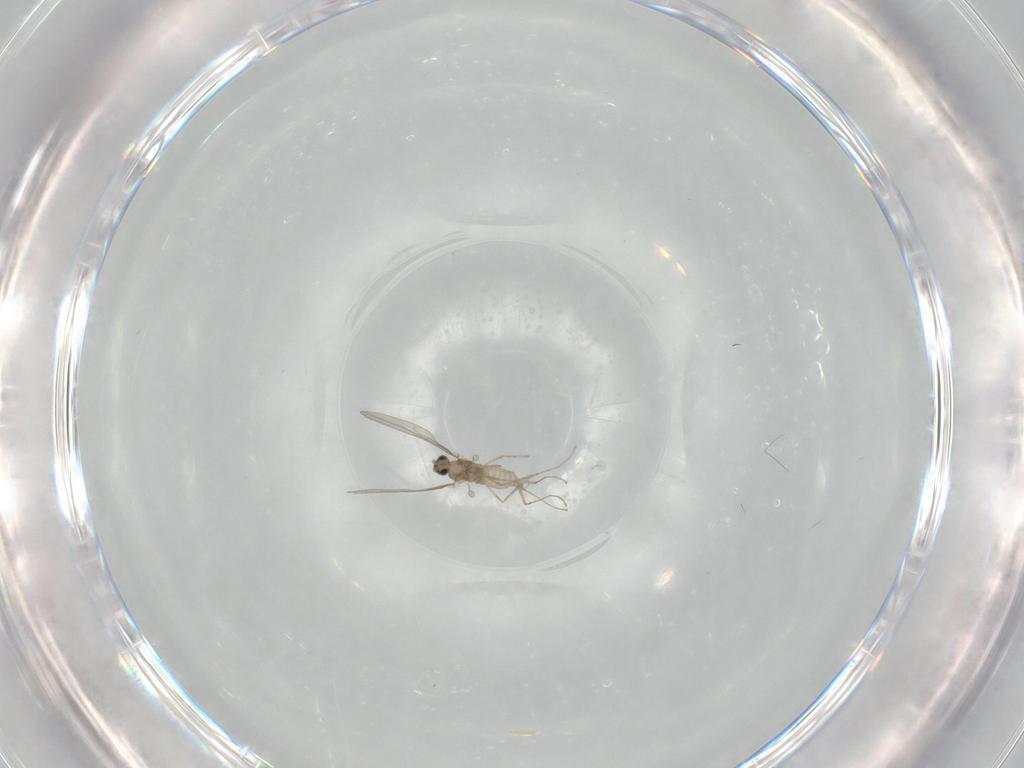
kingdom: Animalia
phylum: Arthropoda
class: Insecta
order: Diptera
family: Cecidomyiidae
